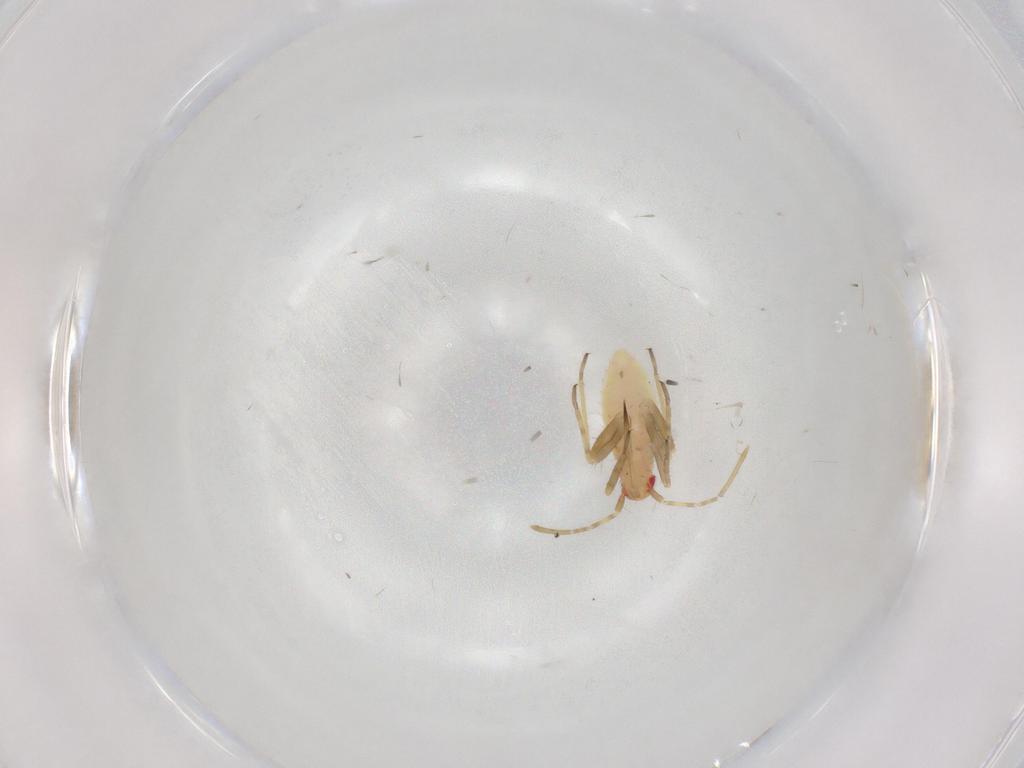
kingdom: Animalia
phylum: Arthropoda
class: Insecta
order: Hemiptera
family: Miridae
